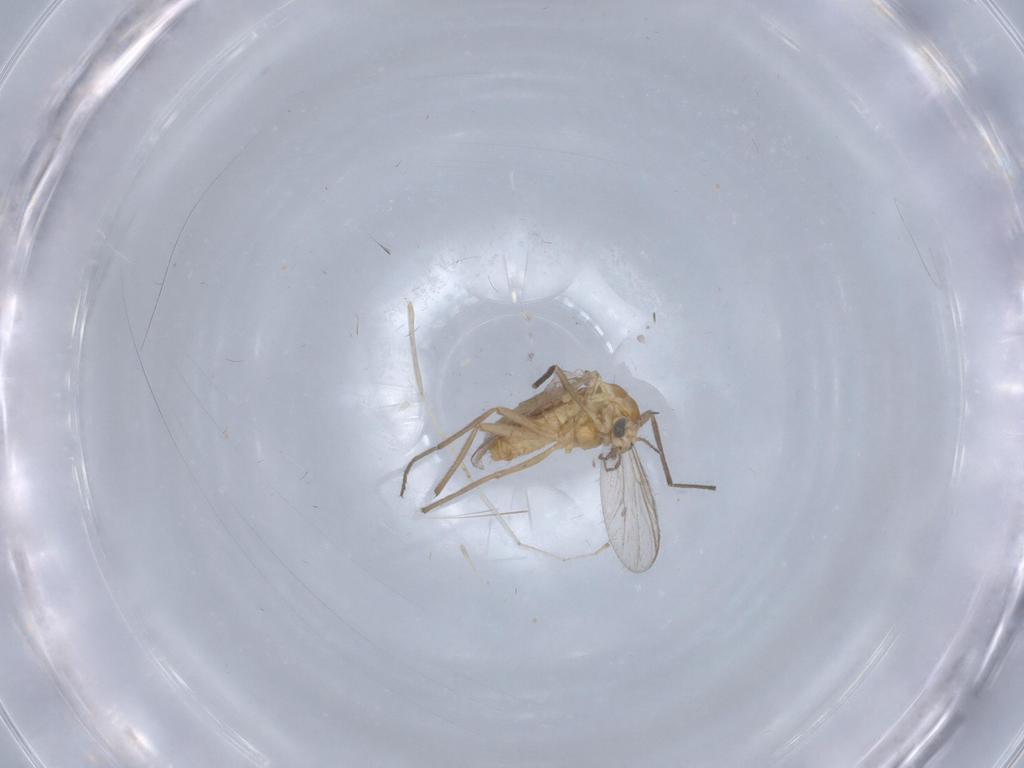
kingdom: Animalia
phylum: Arthropoda
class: Insecta
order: Diptera
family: Chironomidae
